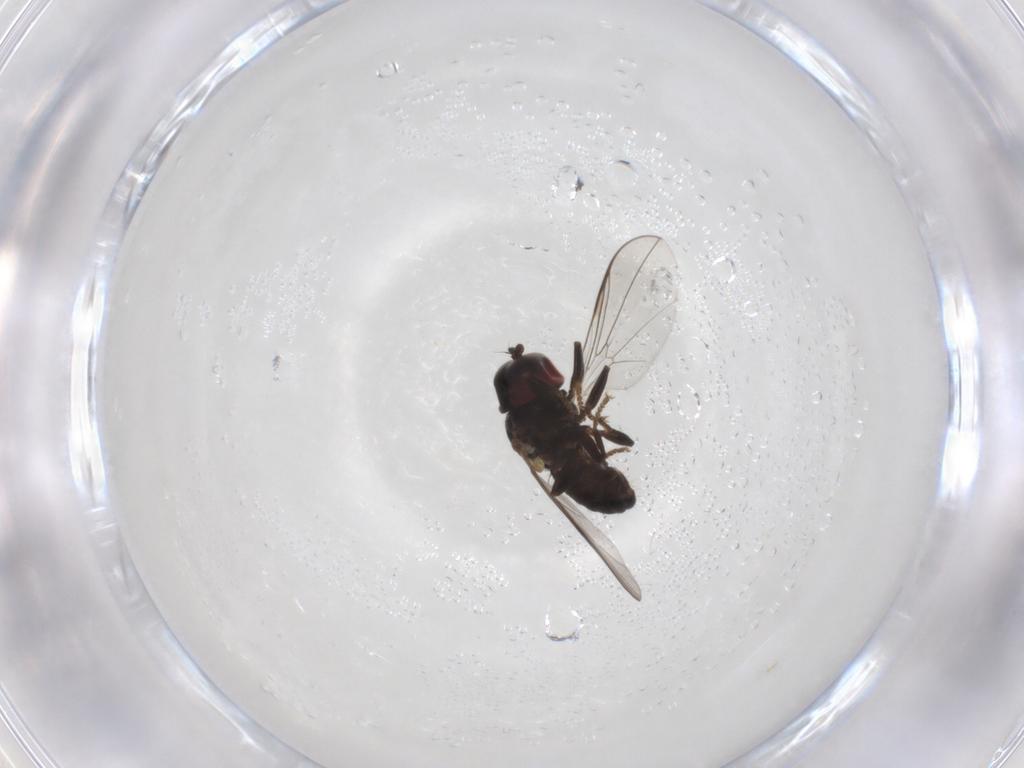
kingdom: Animalia
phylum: Arthropoda
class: Insecta
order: Diptera
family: Pipunculidae
